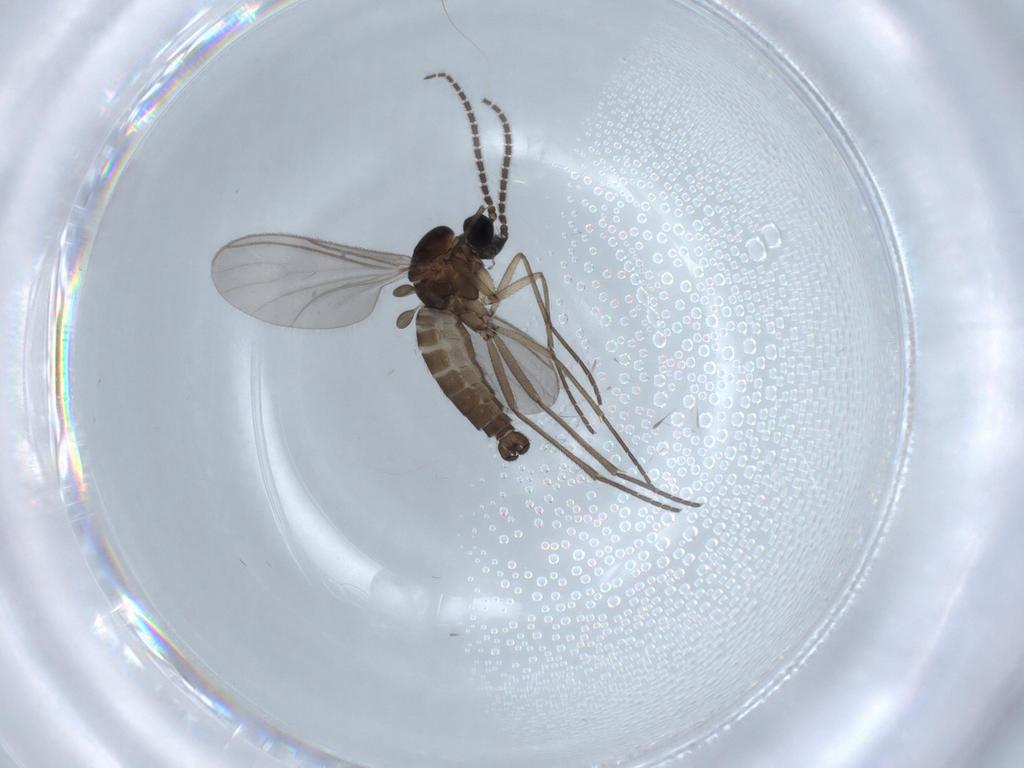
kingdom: Animalia
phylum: Arthropoda
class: Insecta
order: Diptera
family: Sciaridae
